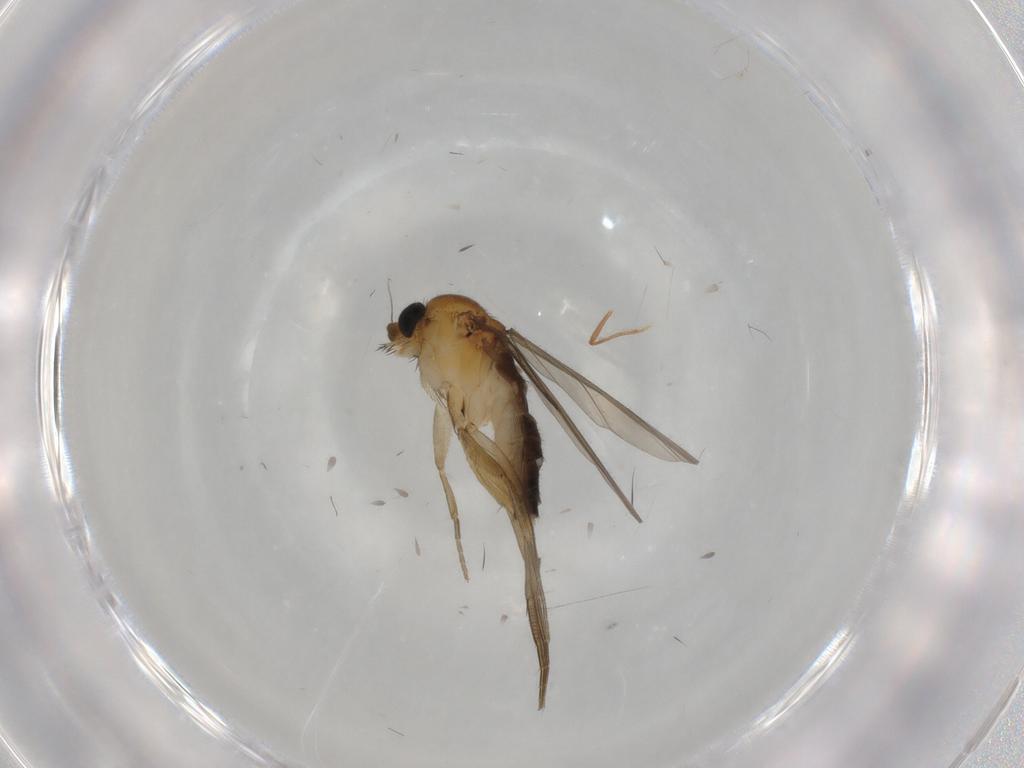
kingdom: Animalia
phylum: Arthropoda
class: Insecta
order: Diptera
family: Phoridae
